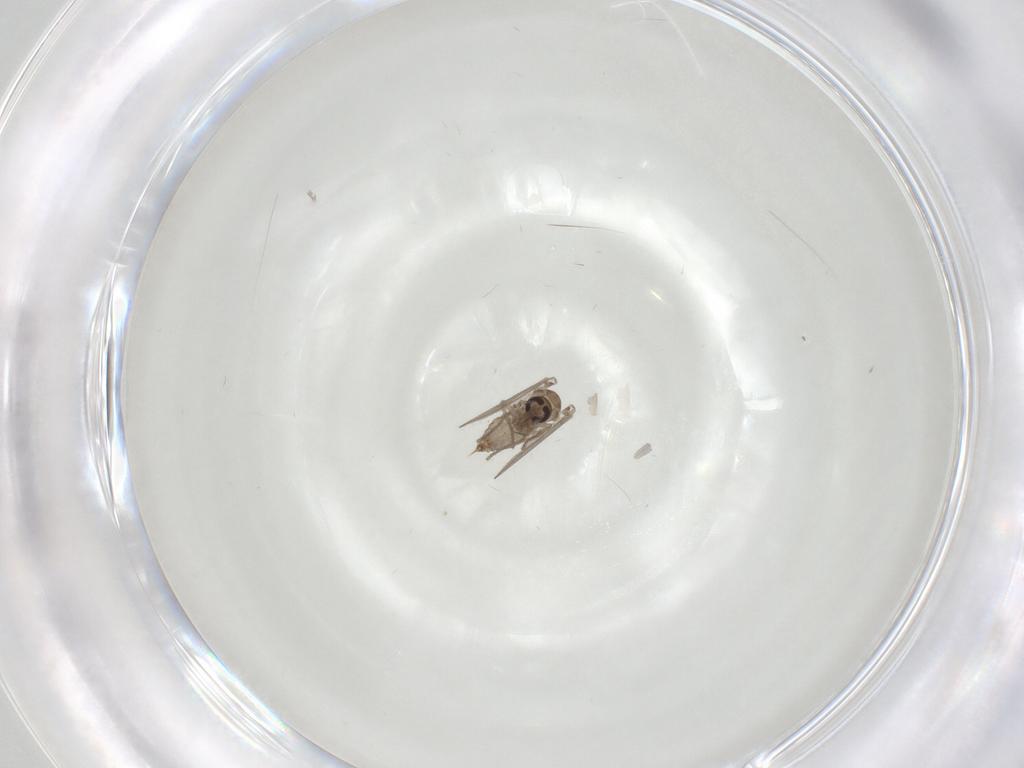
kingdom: Animalia
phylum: Arthropoda
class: Insecta
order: Diptera
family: Psychodidae
